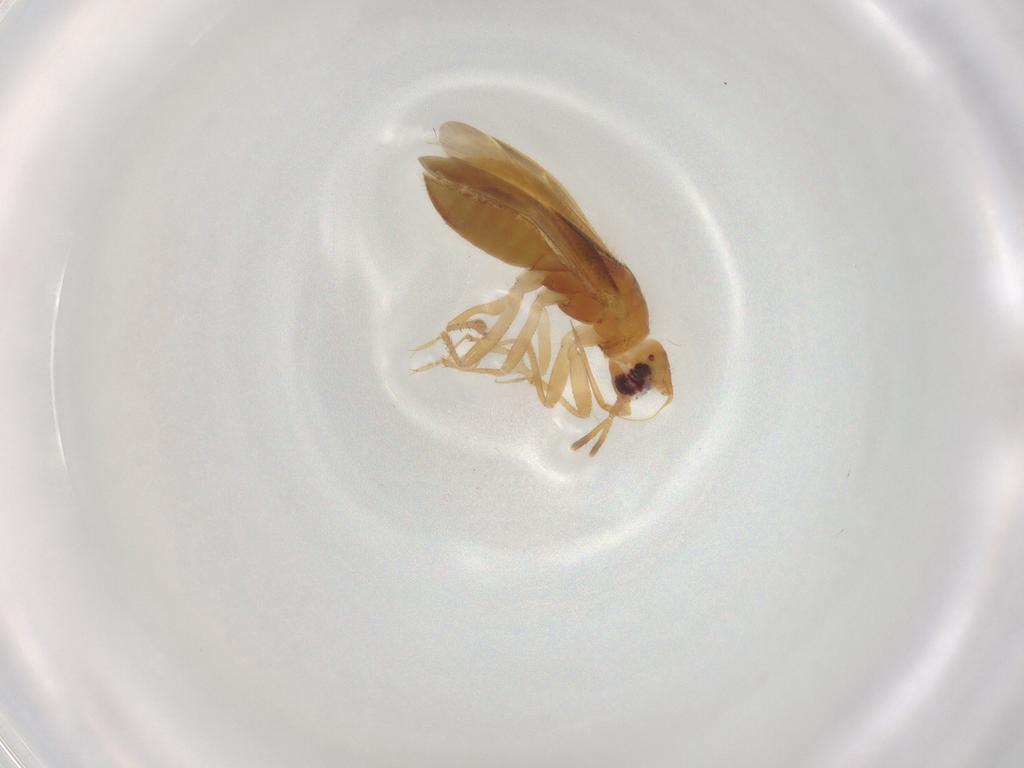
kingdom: Animalia
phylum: Arthropoda
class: Insecta
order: Hemiptera
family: Lasiochilidae
